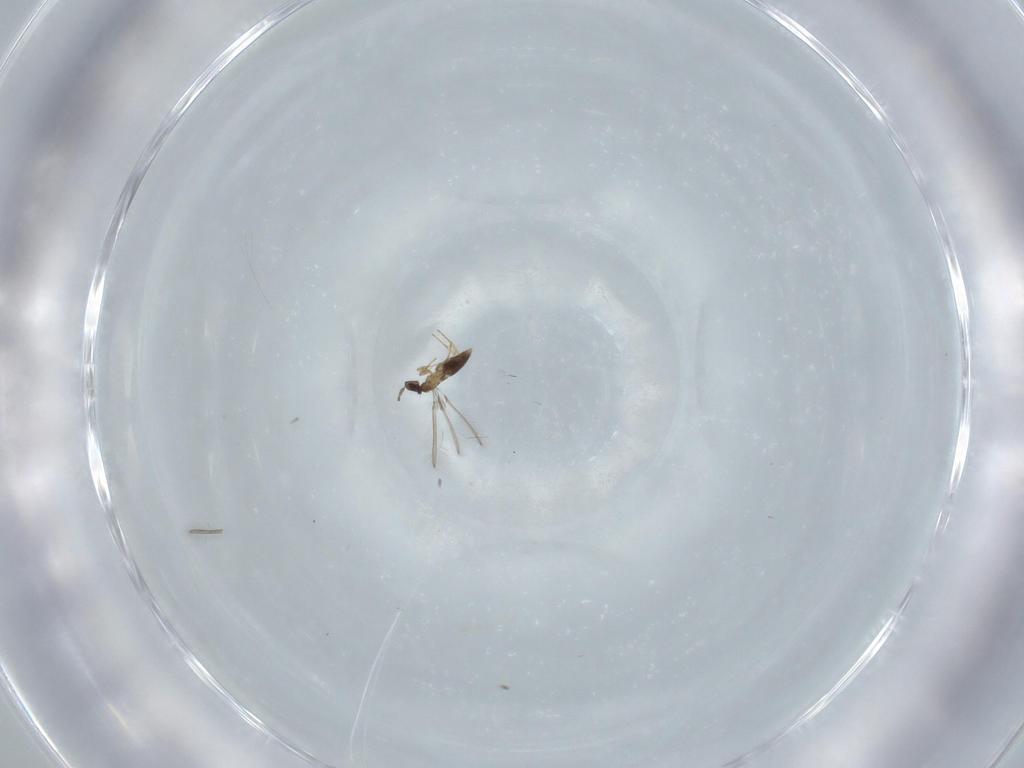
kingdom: Animalia
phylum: Arthropoda
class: Insecta
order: Hymenoptera
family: Mymaridae
